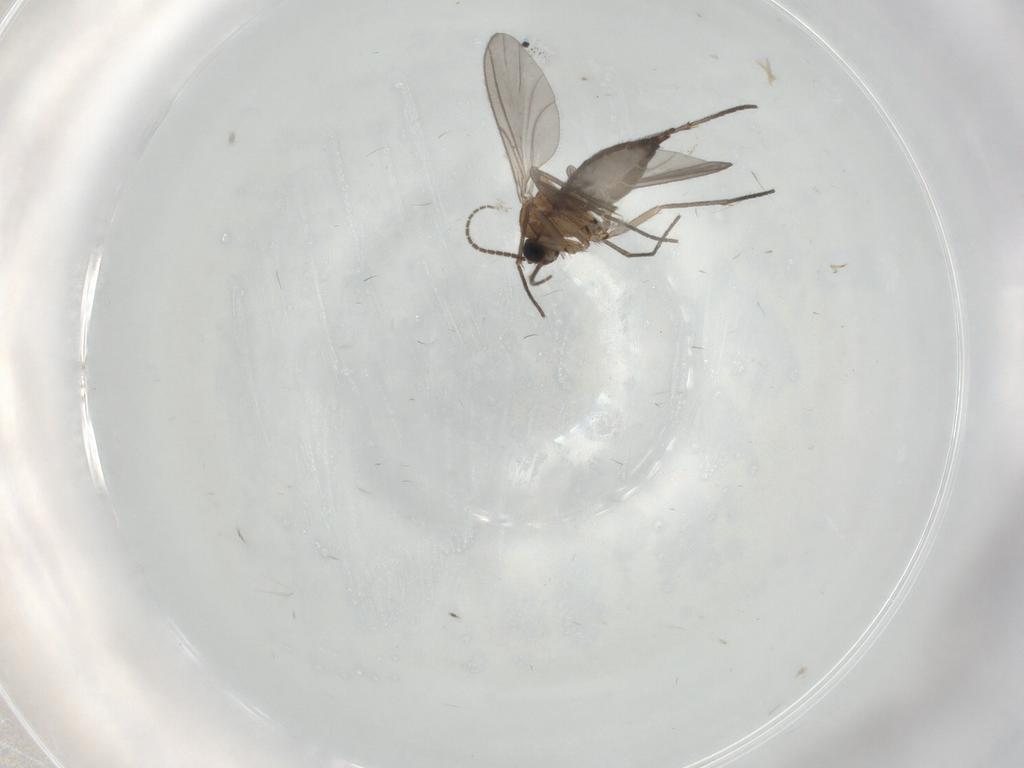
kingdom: Animalia
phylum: Arthropoda
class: Insecta
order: Diptera
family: Sciaridae
